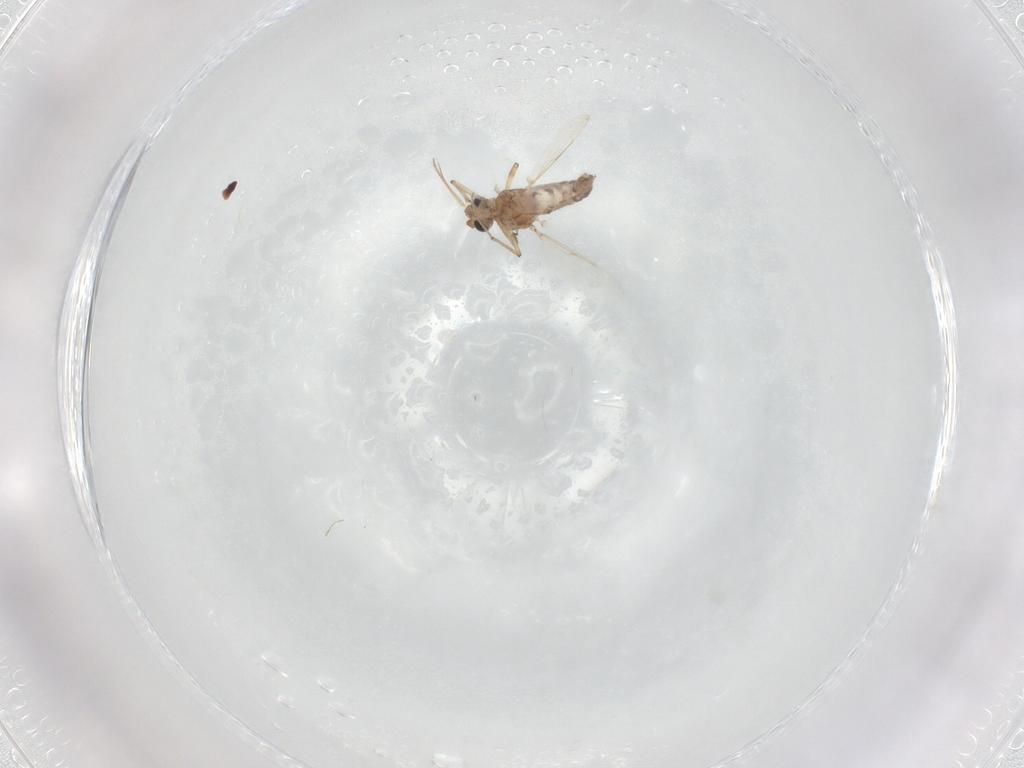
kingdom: Animalia
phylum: Arthropoda
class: Insecta
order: Diptera
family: Ceratopogonidae
